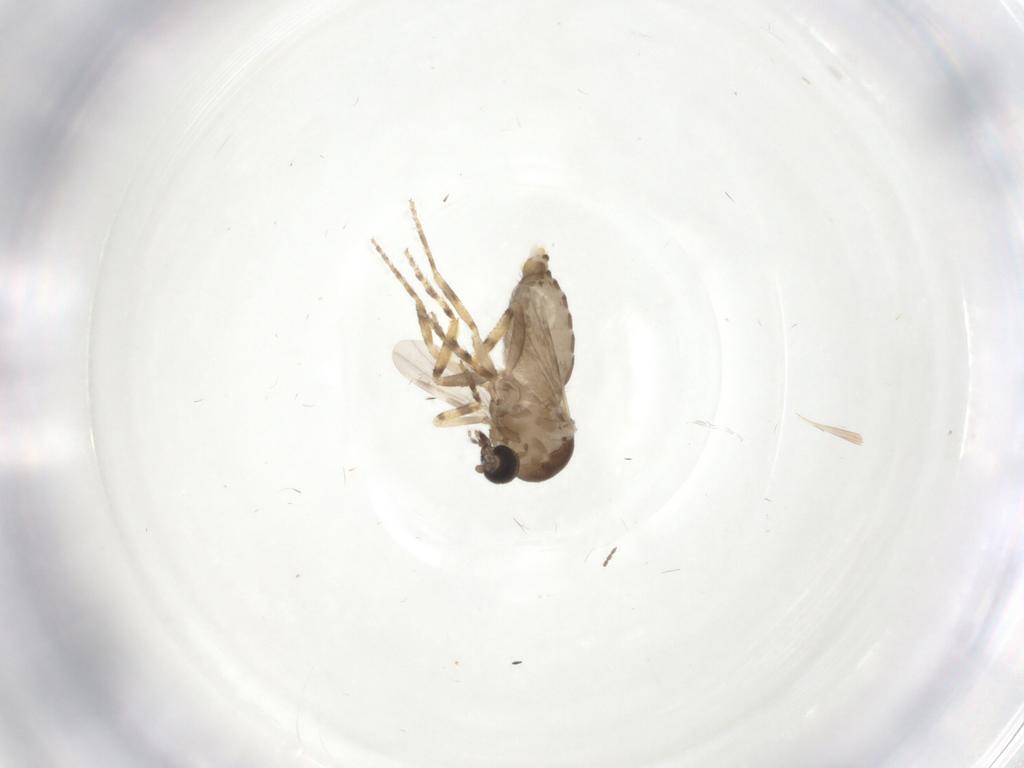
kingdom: Animalia
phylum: Arthropoda
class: Insecta
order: Diptera
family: Ceratopogonidae
